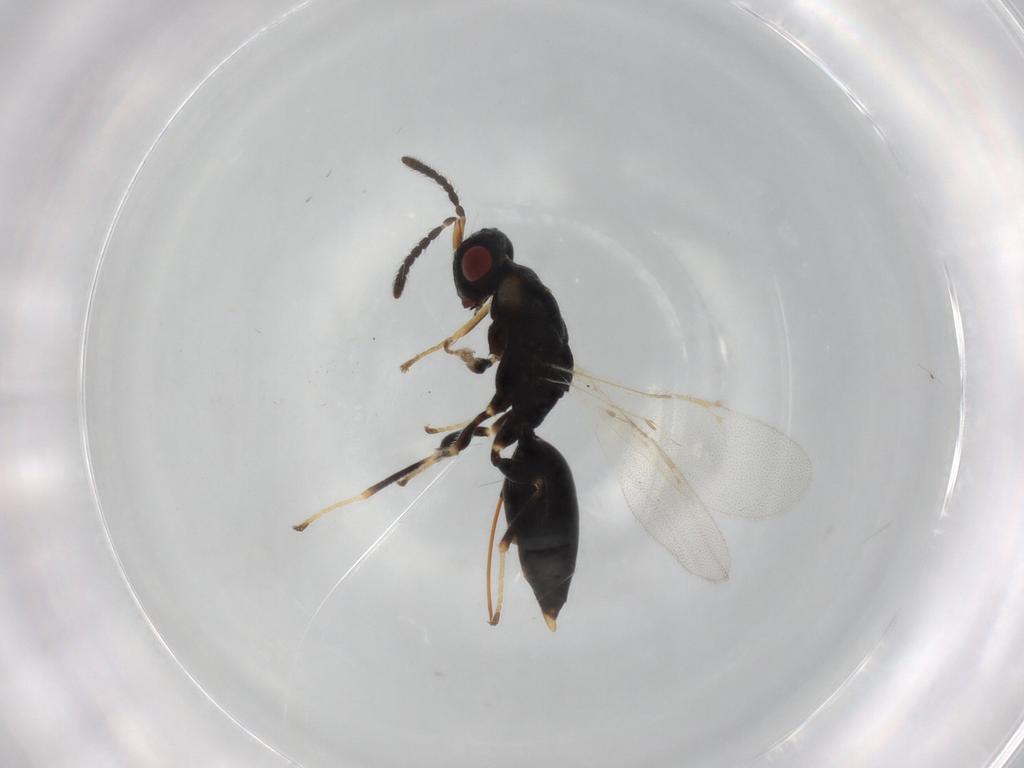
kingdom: Animalia
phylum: Arthropoda
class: Insecta
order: Hymenoptera
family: Eurytomidae
